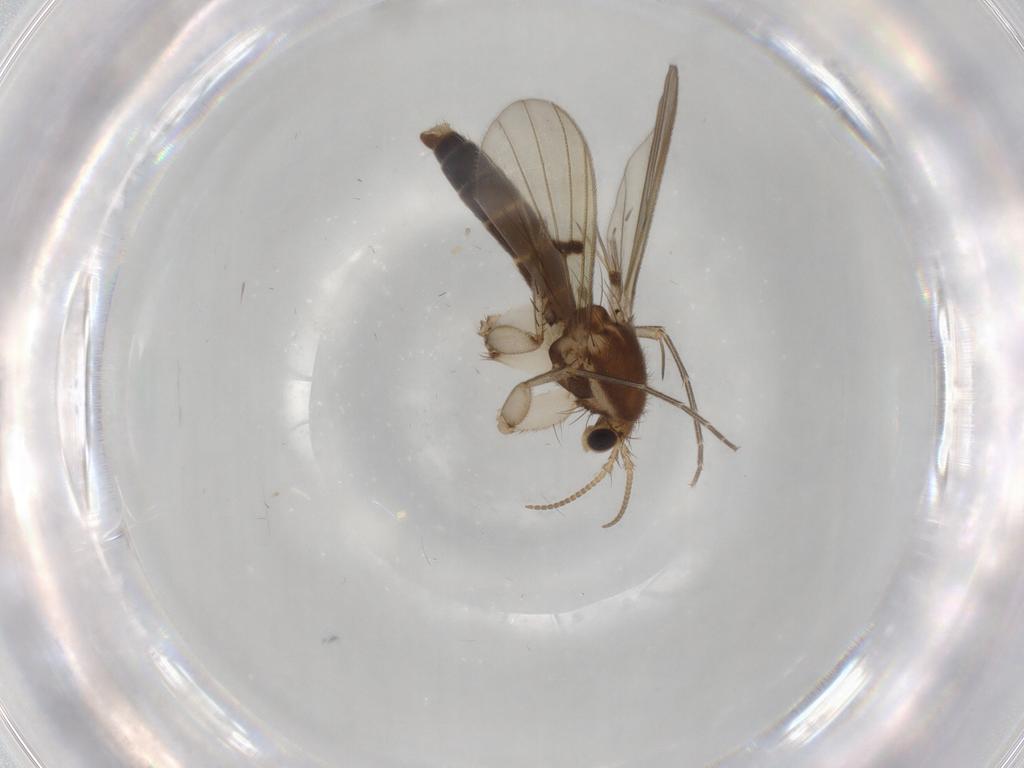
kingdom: Animalia
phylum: Arthropoda
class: Insecta
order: Diptera
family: Mycetophilidae
